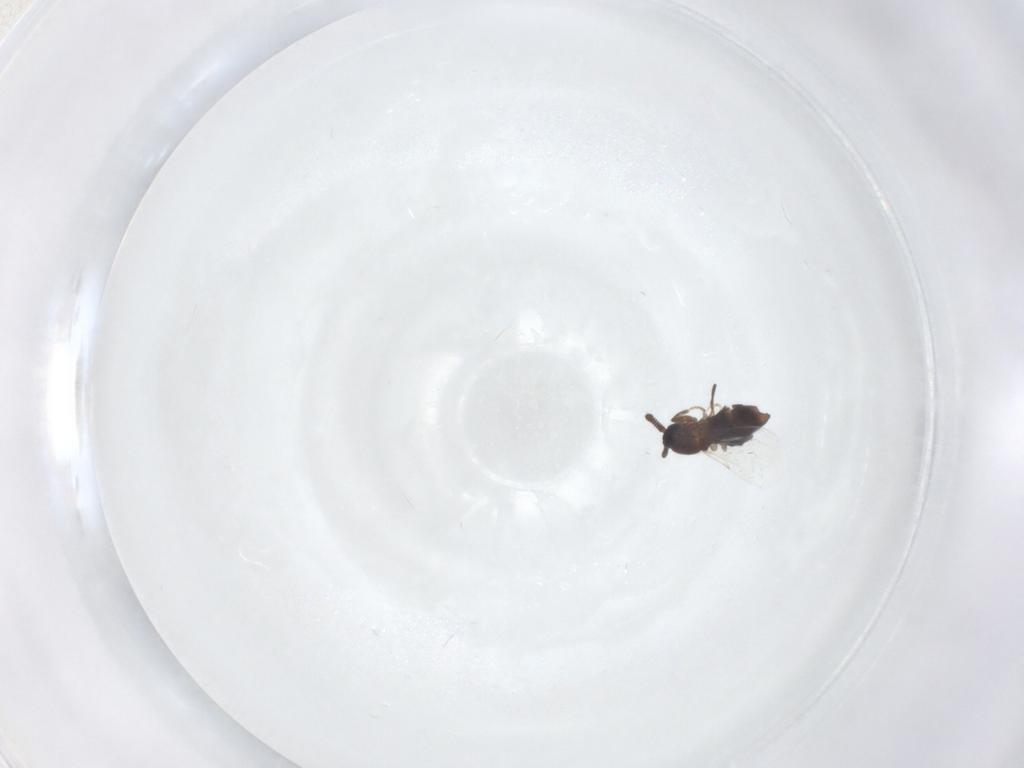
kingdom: Animalia
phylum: Arthropoda
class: Insecta
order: Diptera
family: Scatopsidae
